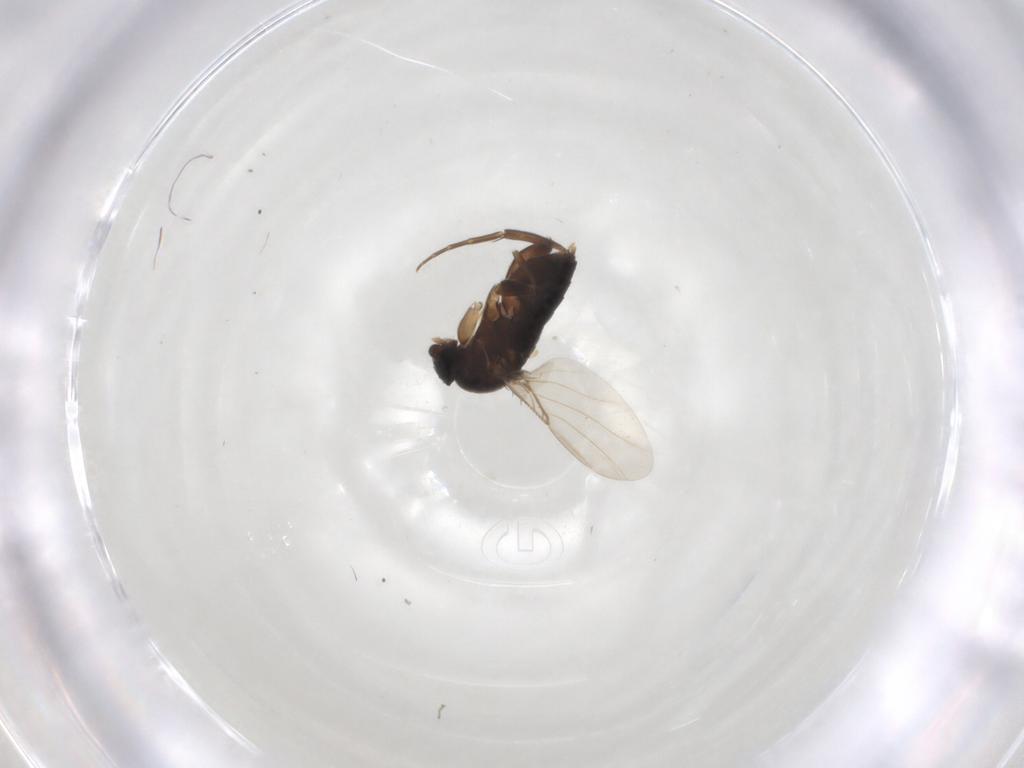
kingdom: Animalia
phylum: Arthropoda
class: Insecta
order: Diptera
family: Phoridae
